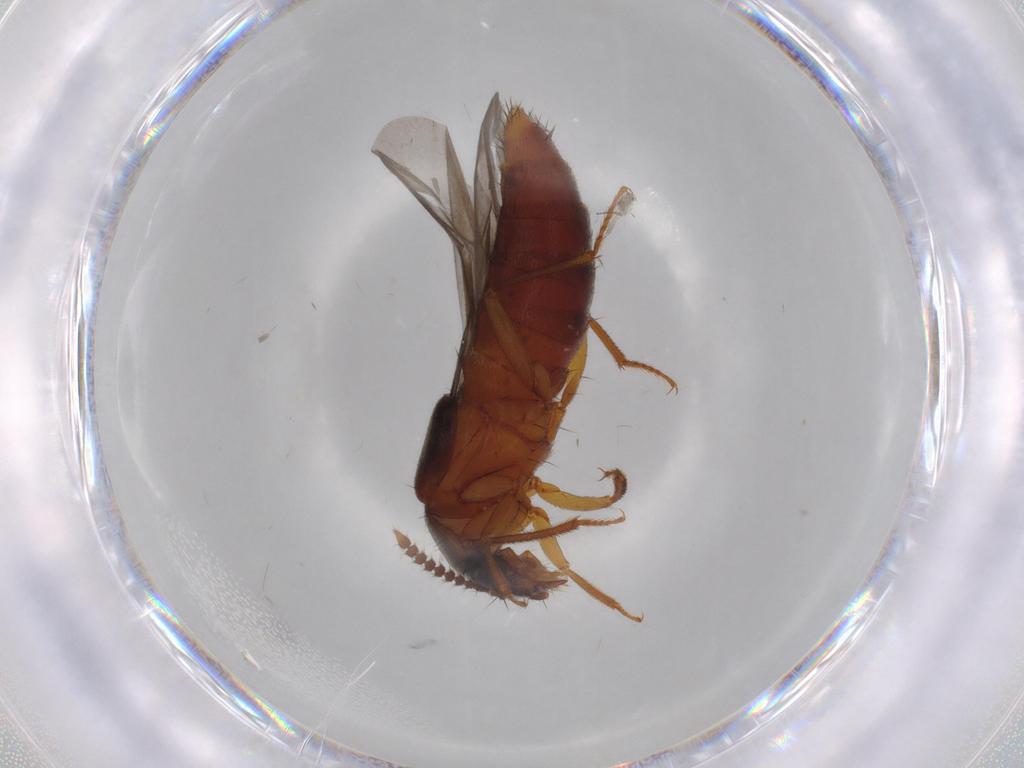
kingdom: Animalia
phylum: Arthropoda
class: Insecta
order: Coleoptera
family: Staphylinidae
